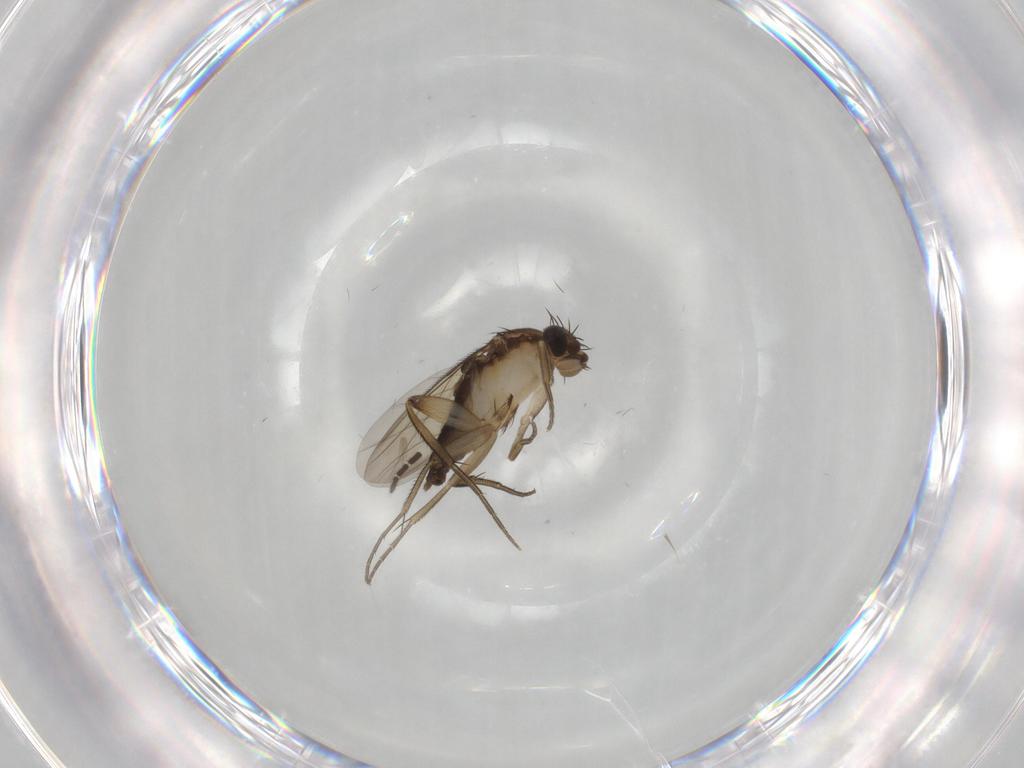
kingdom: Animalia
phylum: Arthropoda
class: Insecta
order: Diptera
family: Phoridae
